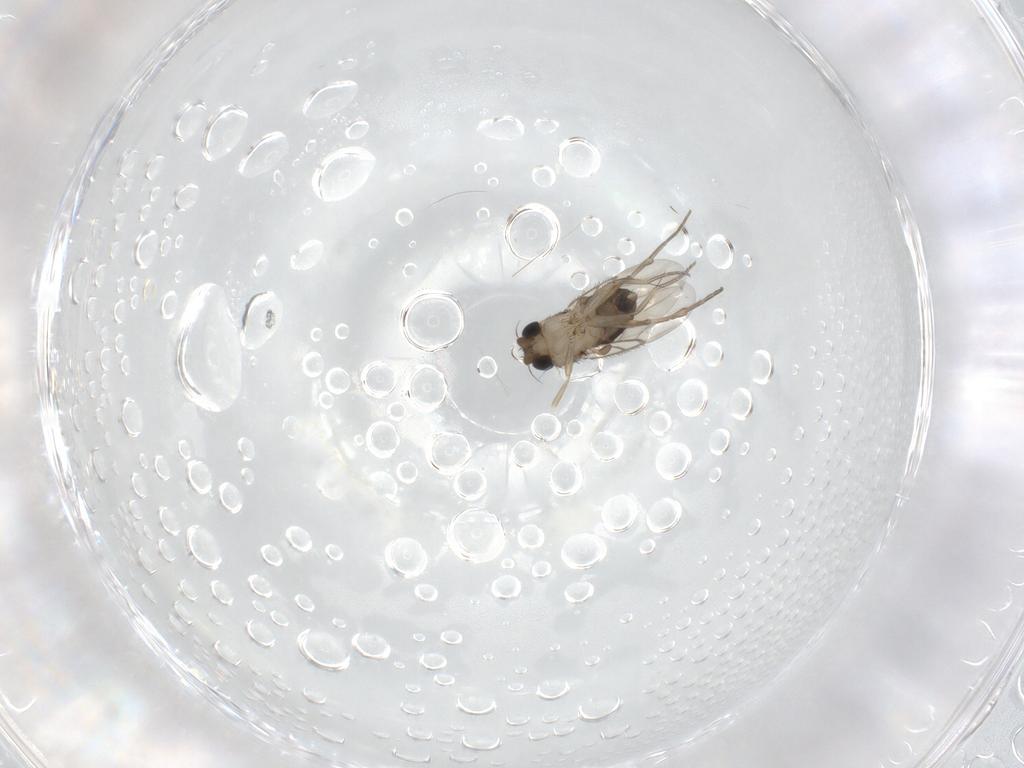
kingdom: Animalia
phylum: Arthropoda
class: Insecta
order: Diptera
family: Phoridae
